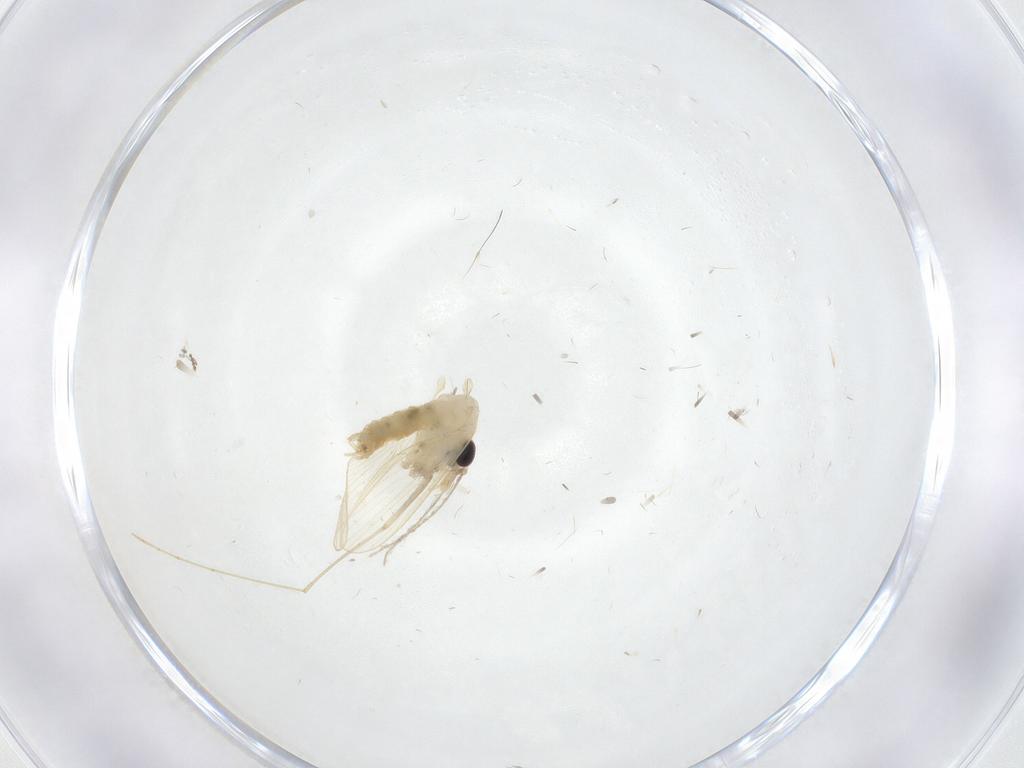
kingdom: Animalia
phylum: Arthropoda
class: Insecta
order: Diptera
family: Psychodidae
